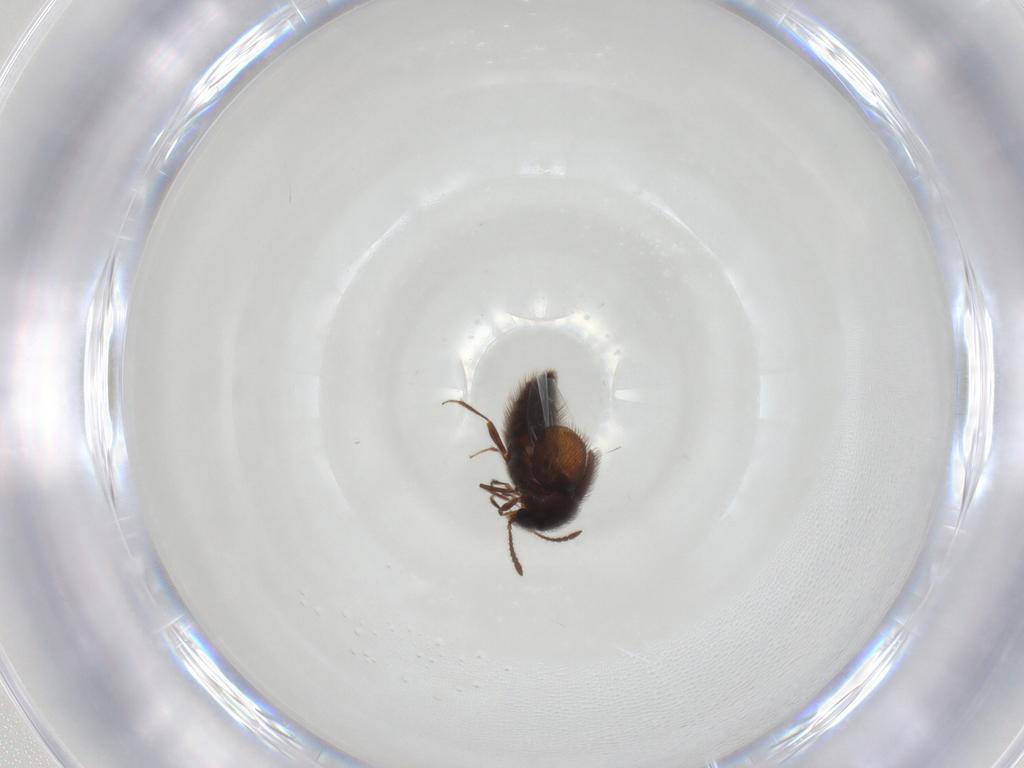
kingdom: Animalia
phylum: Arthropoda
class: Insecta
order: Coleoptera
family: Staphylinidae
